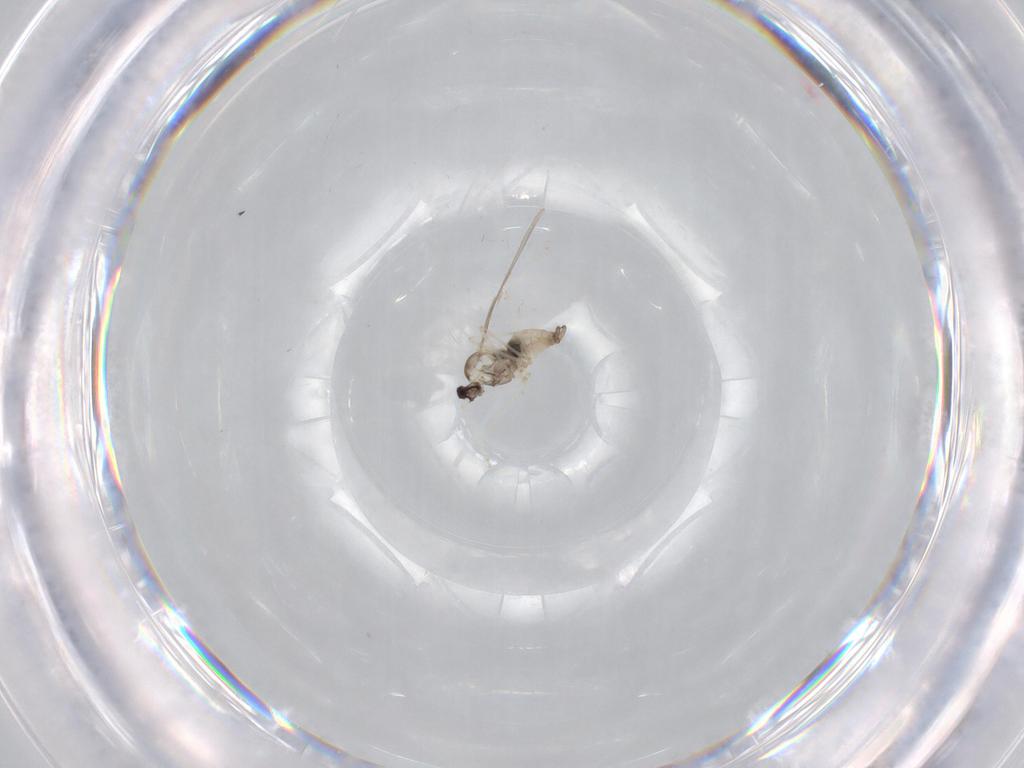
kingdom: Animalia
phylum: Arthropoda
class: Insecta
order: Diptera
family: Cecidomyiidae
